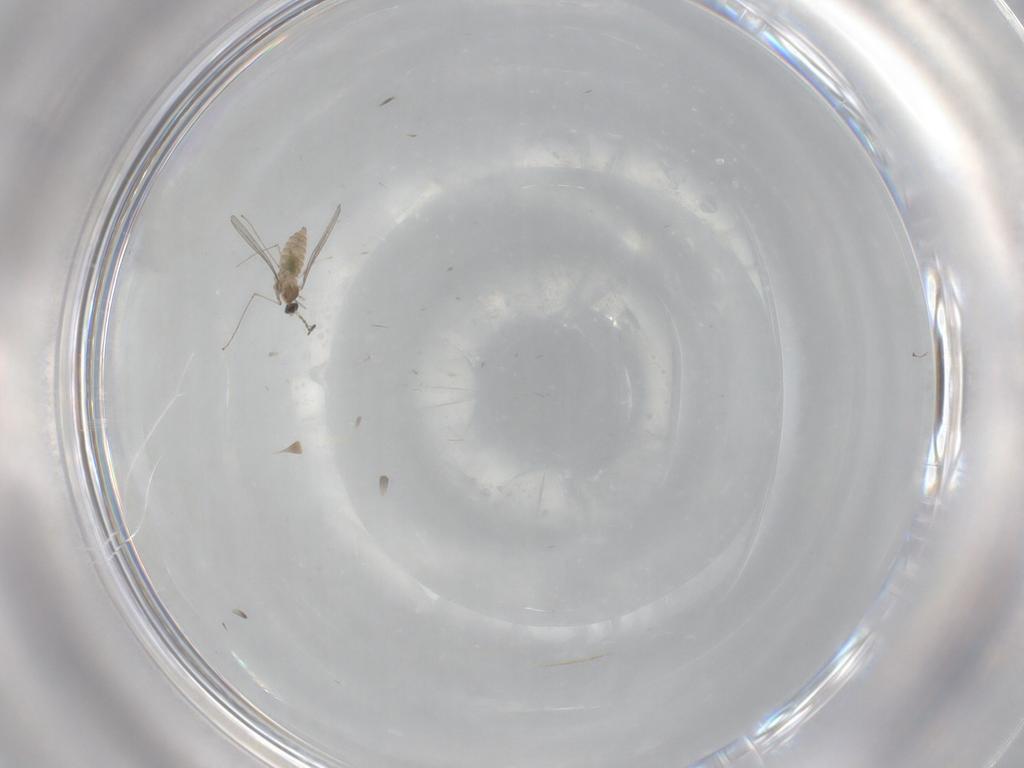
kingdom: Animalia
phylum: Arthropoda
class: Insecta
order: Diptera
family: Cecidomyiidae
